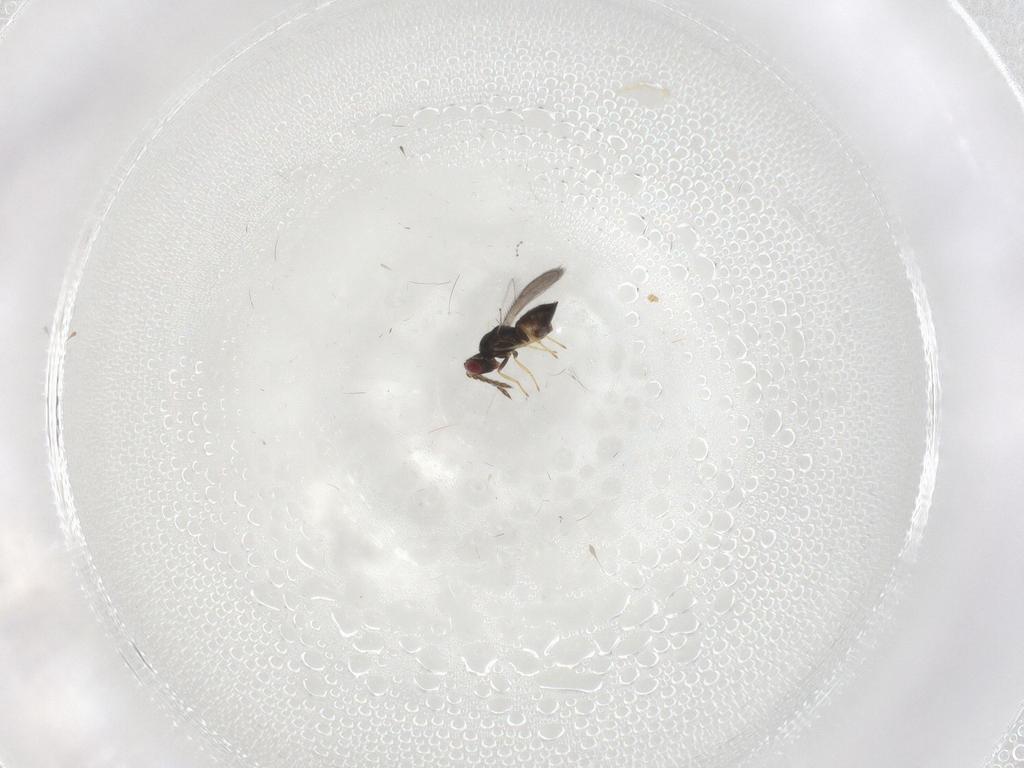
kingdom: Animalia
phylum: Arthropoda
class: Insecta
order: Hymenoptera
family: Eulophidae
